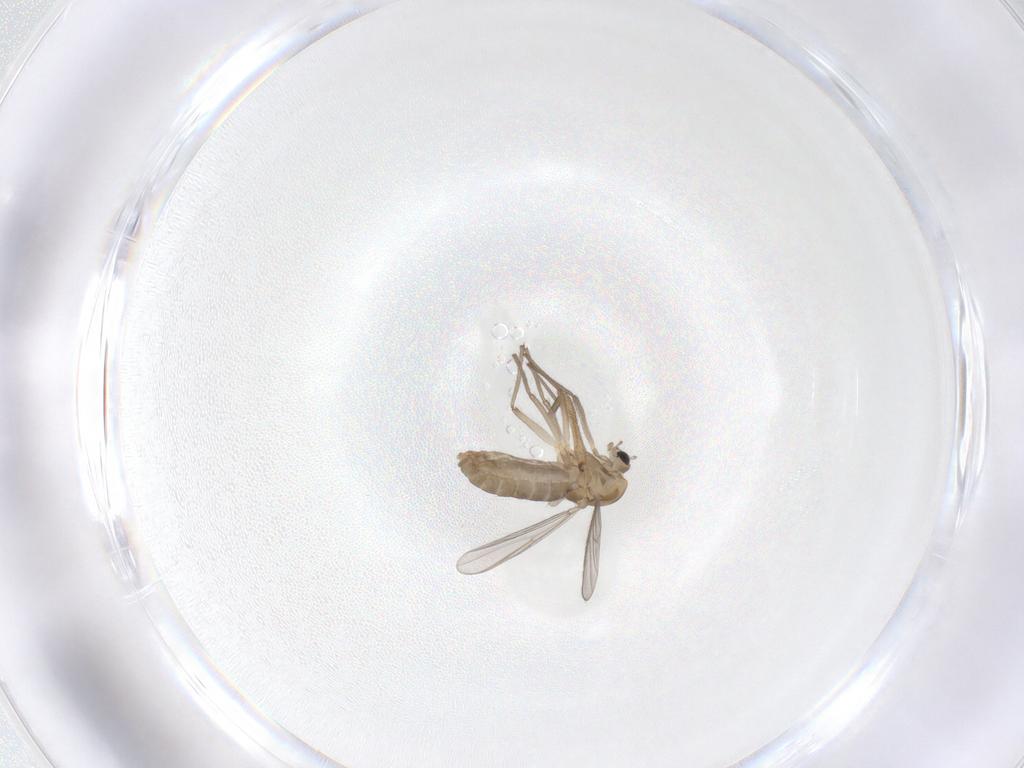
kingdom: Animalia
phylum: Arthropoda
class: Insecta
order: Diptera
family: Chironomidae
